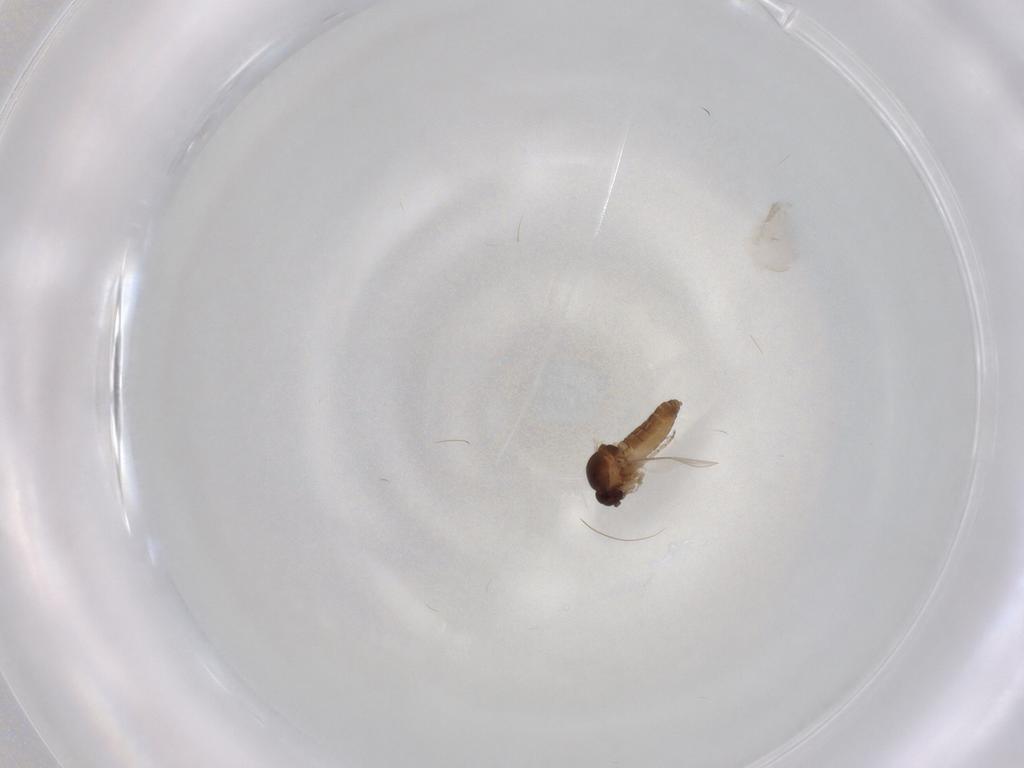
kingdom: Animalia
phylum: Arthropoda
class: Insecta
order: Diptera
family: Ceratopogonidae
